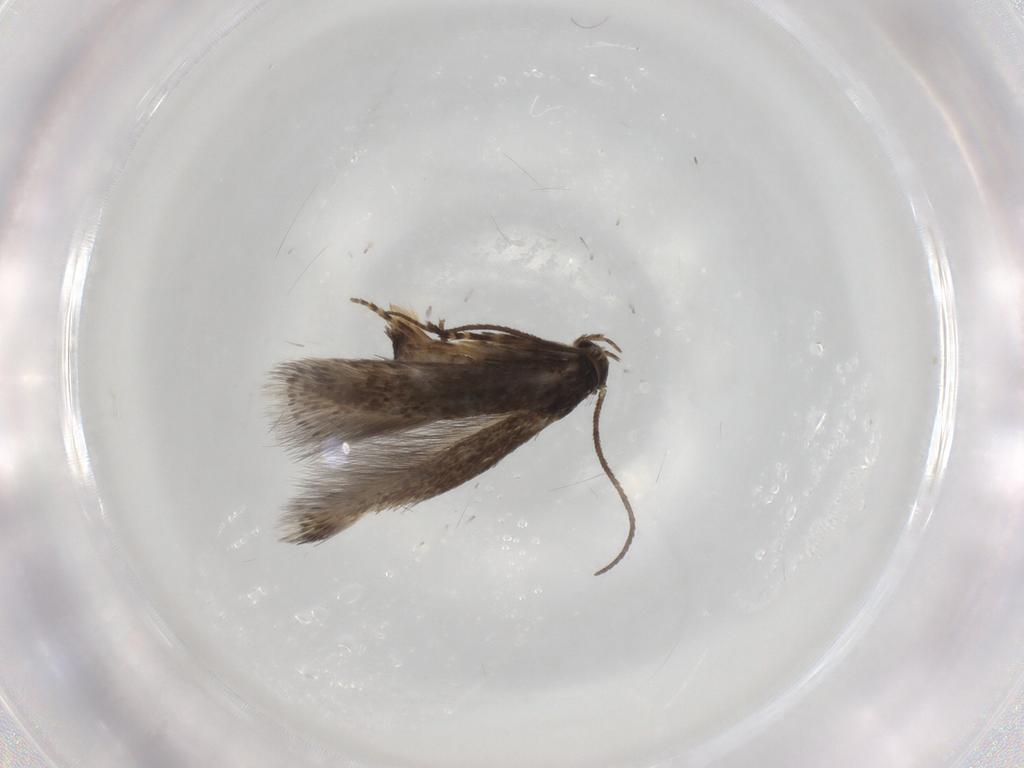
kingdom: Animalia
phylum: Arthropoda
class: Insecta
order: Lepidoptera
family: Elachistidae
